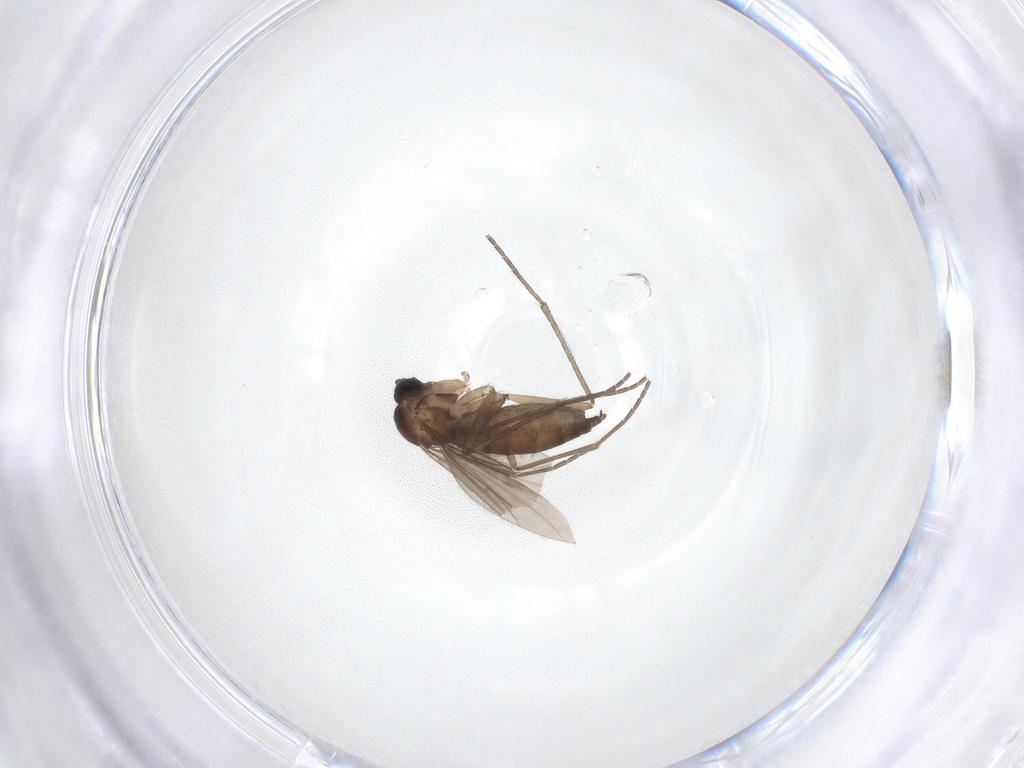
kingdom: Animalia
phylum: Arthropoda
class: Insecta
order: Diptera
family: Sciaridae
